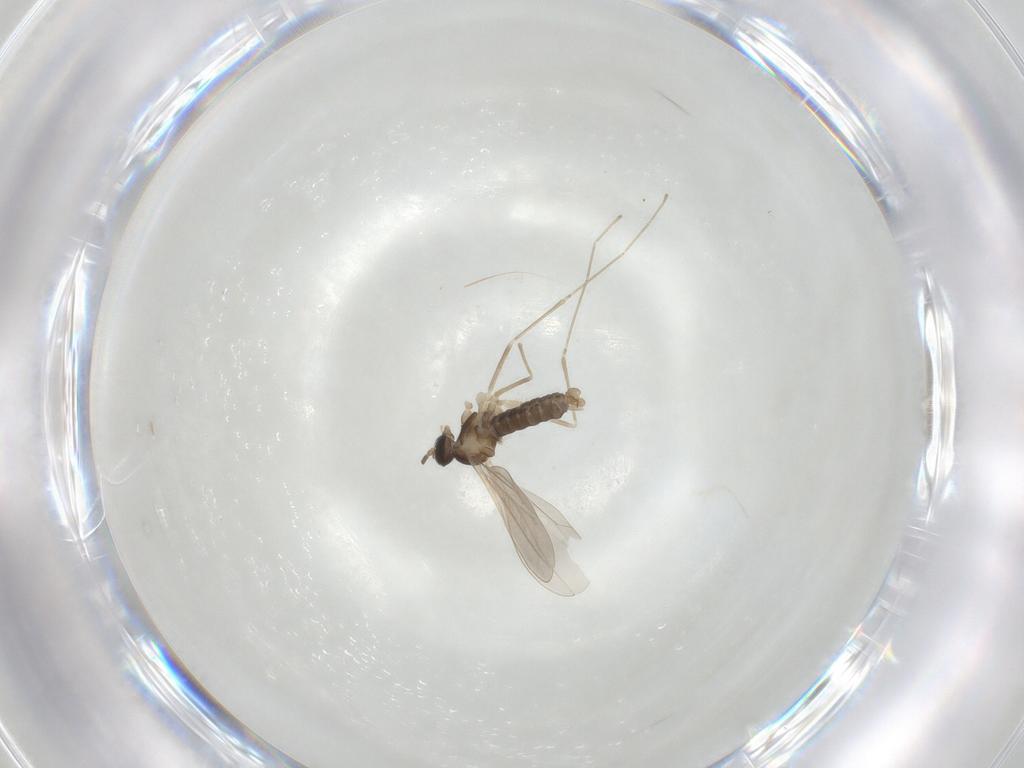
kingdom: Animalia
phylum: Arthropoda
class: Insecta
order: Diptera
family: Cecidomyiidae
